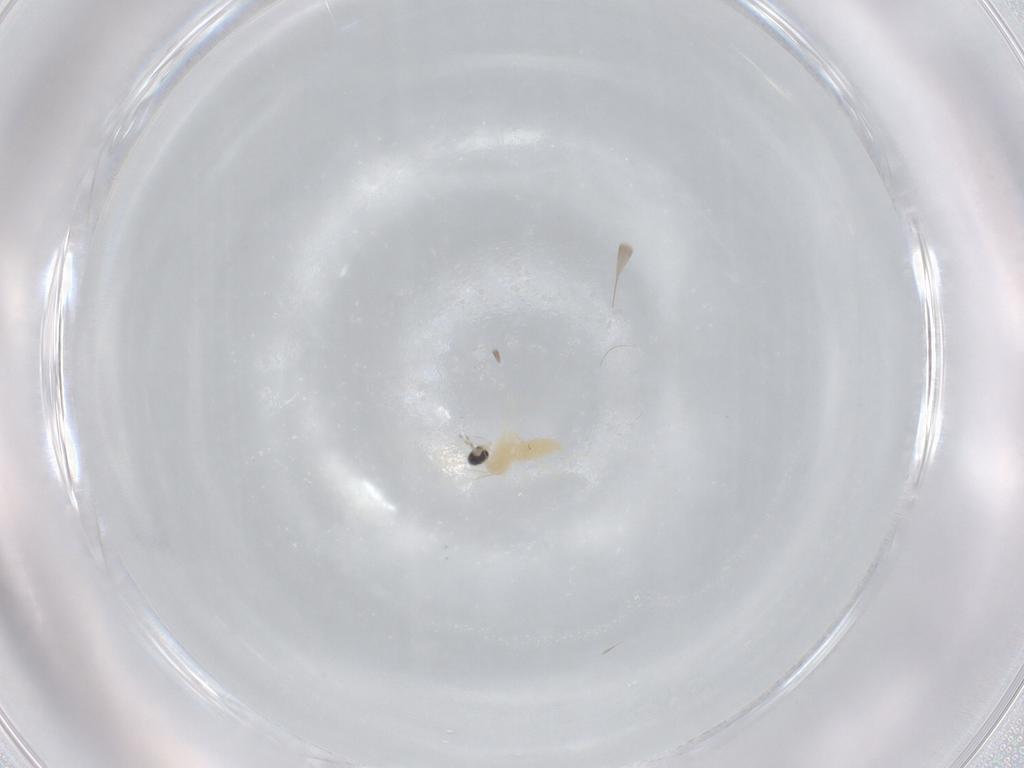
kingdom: Animalia
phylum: Arthropoda
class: Insecta
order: Diptera
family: Cecidomyiidae
